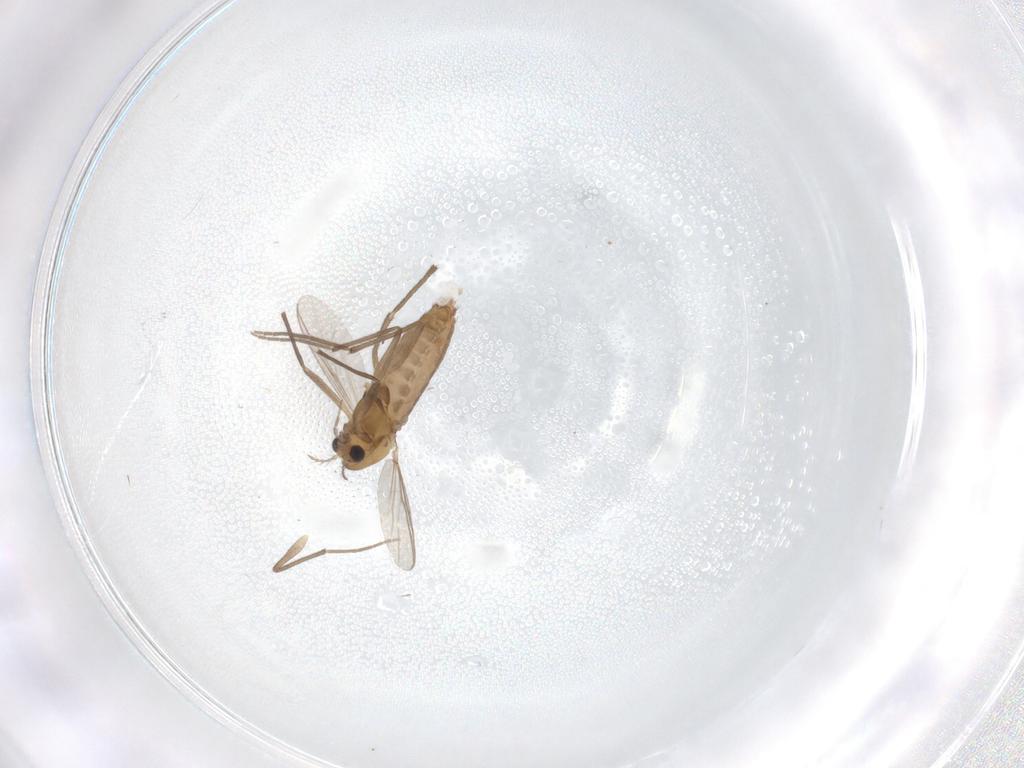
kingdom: Animalia
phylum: Arthropoda
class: Insecta
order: Diptera
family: Chironomidae
